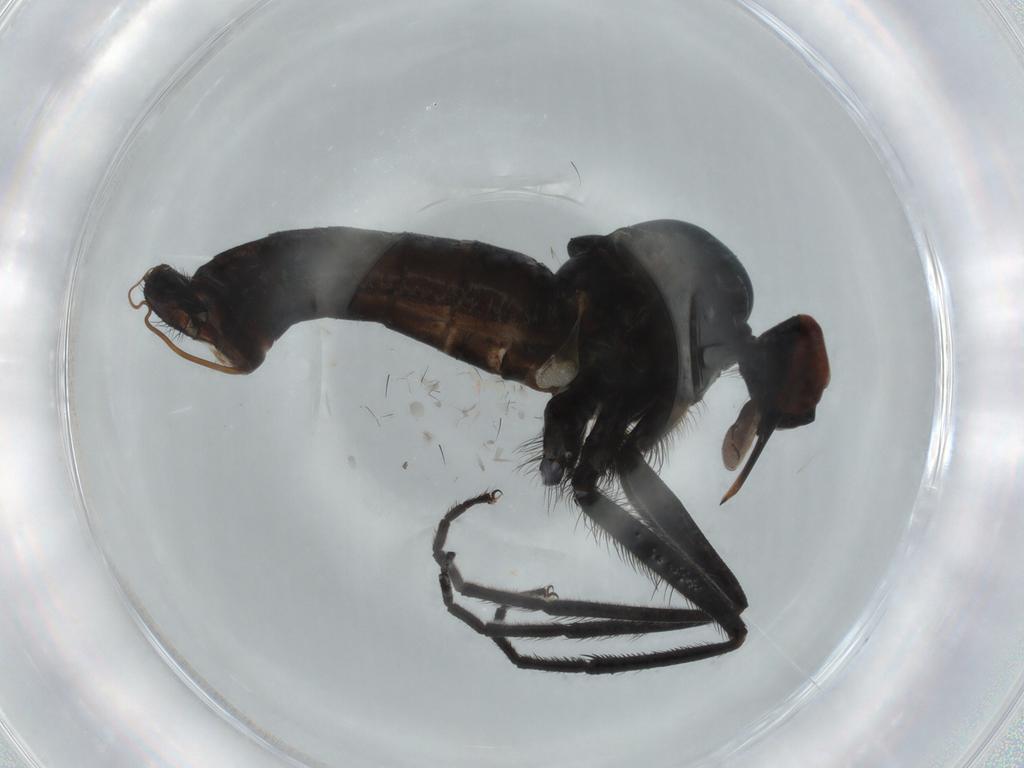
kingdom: Animalia
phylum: Arthropoda
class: Insecta
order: Diptera
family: Empididae
